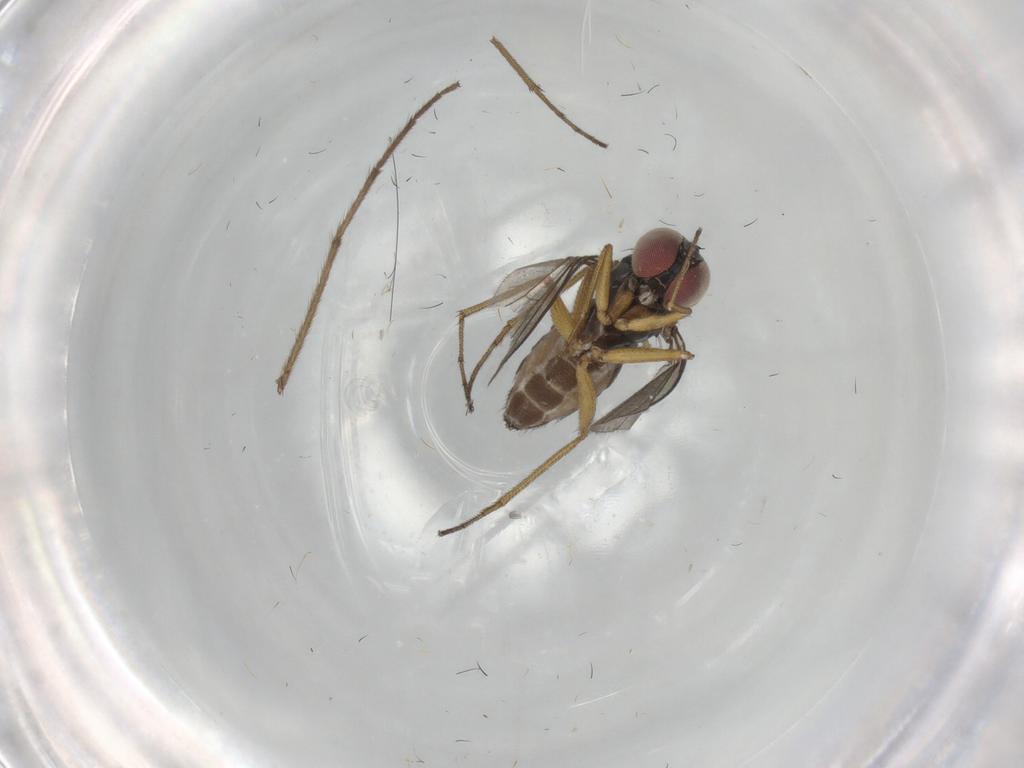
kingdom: Animalia
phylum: Arthropoda
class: Insecta
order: Diptera
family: Dolichopodidae
